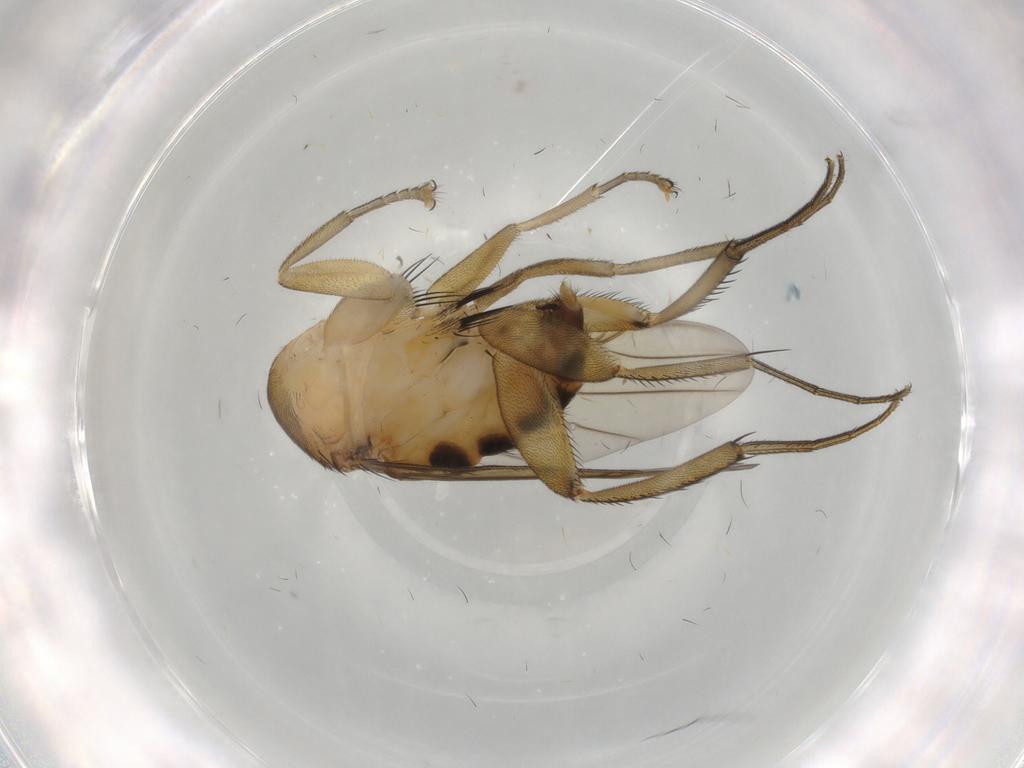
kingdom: Animalia
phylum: Arthropoda
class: Insecta
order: Diptera
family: Phoridae
